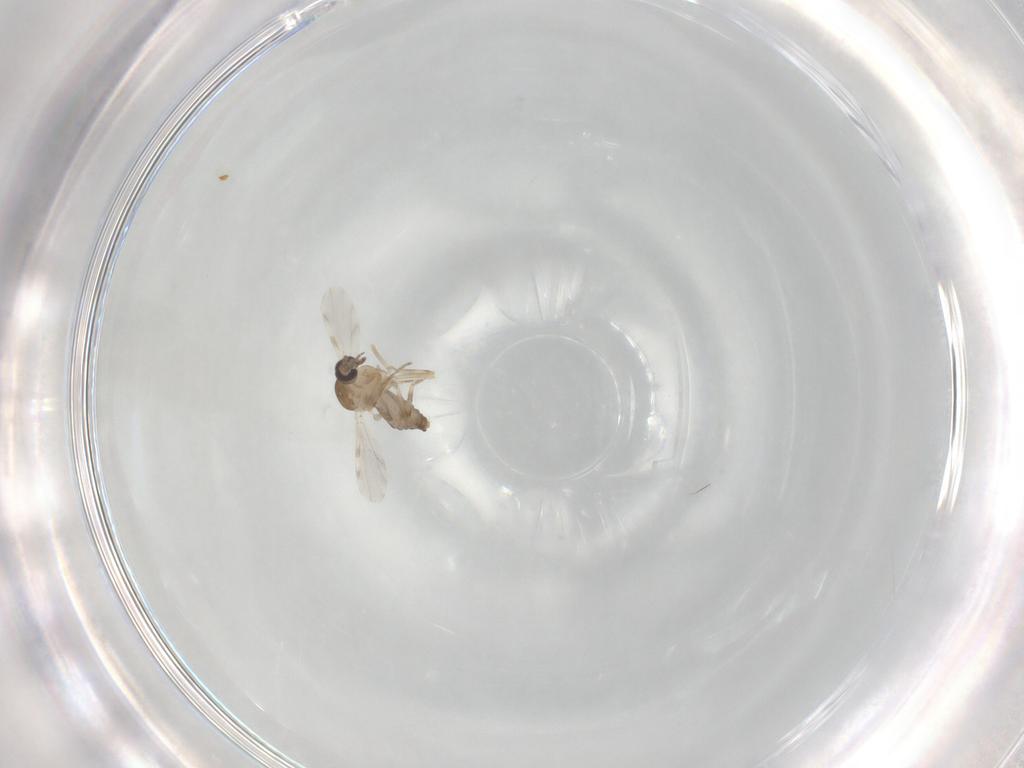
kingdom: Animalia
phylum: Arthropoda
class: Insecta
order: Diptera
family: Ceratopogonidae
